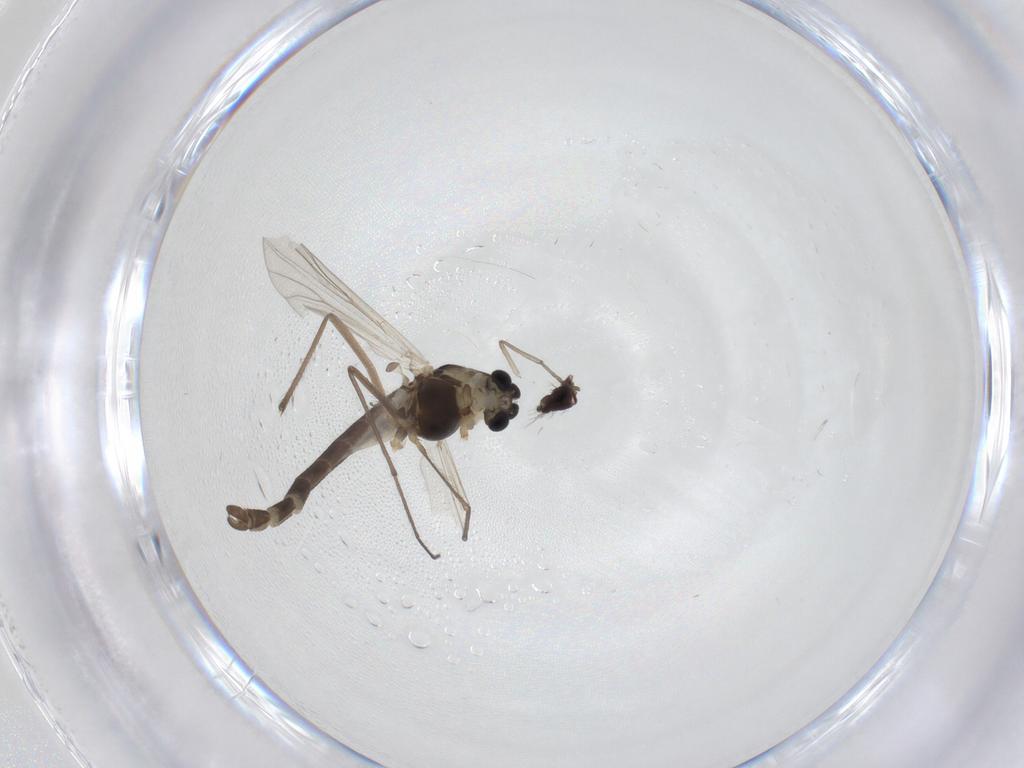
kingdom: Animalia
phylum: Arthropoda
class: Insecta
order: Diptera
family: Chironomidae
